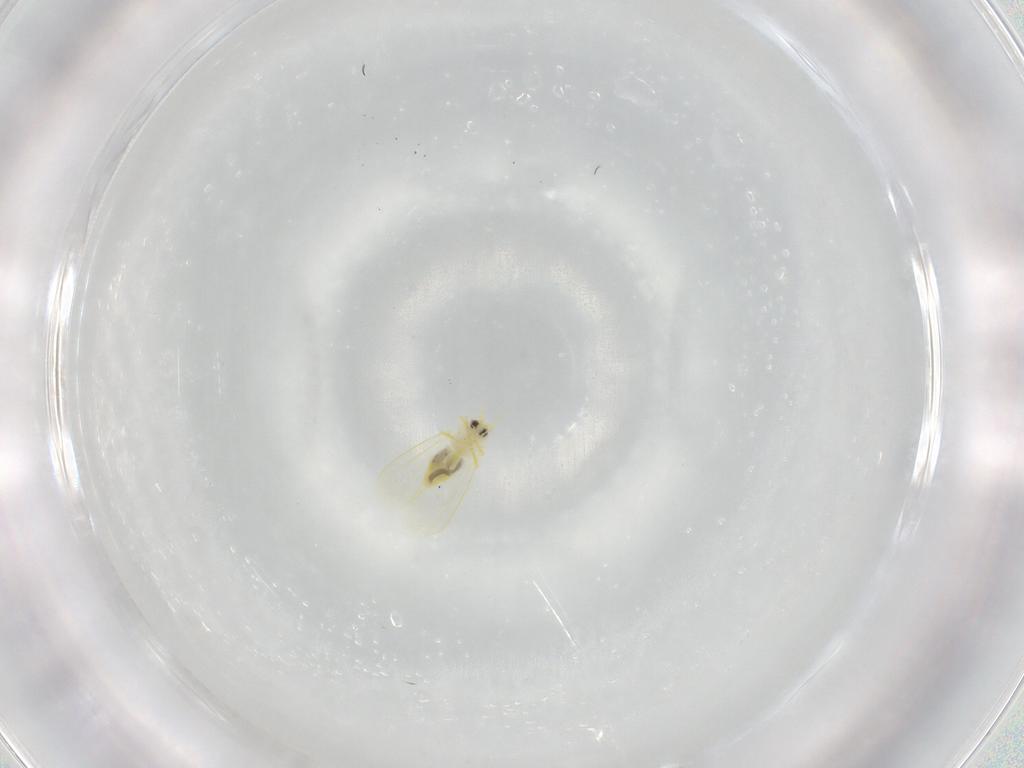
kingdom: Animalia
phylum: Arthropoda
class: Insecta
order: Hemiptera
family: Aleyrodidae
